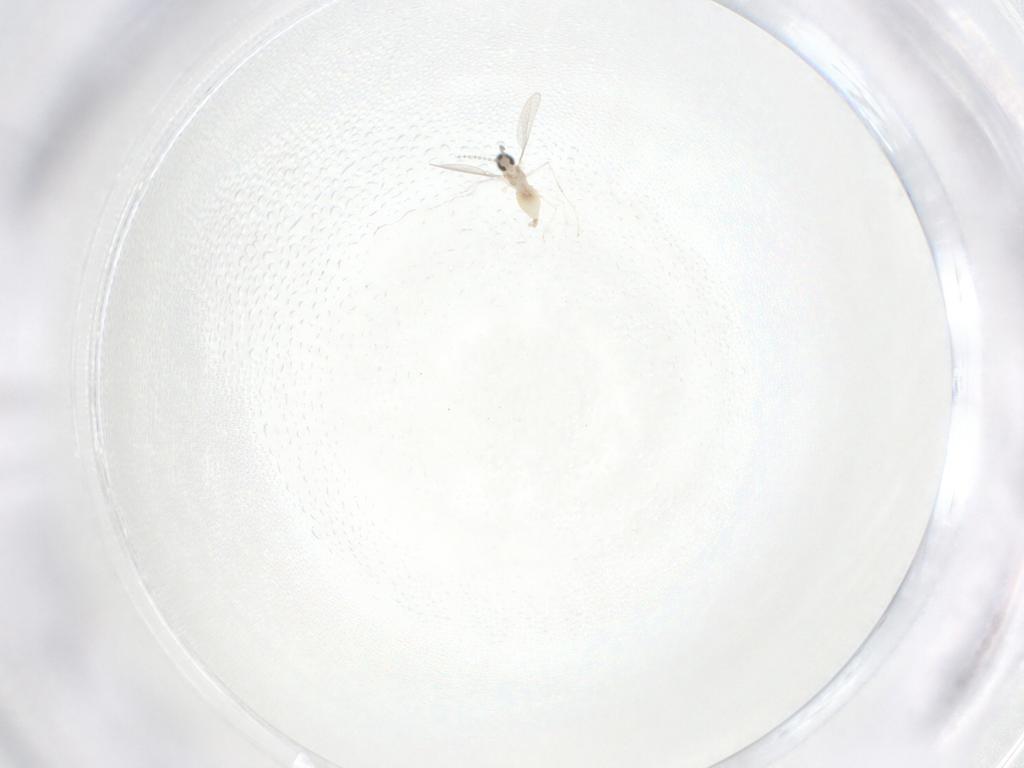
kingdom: Animalia
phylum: Arthropoda
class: Insecta
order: Diptera
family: Cecidomyiidae
